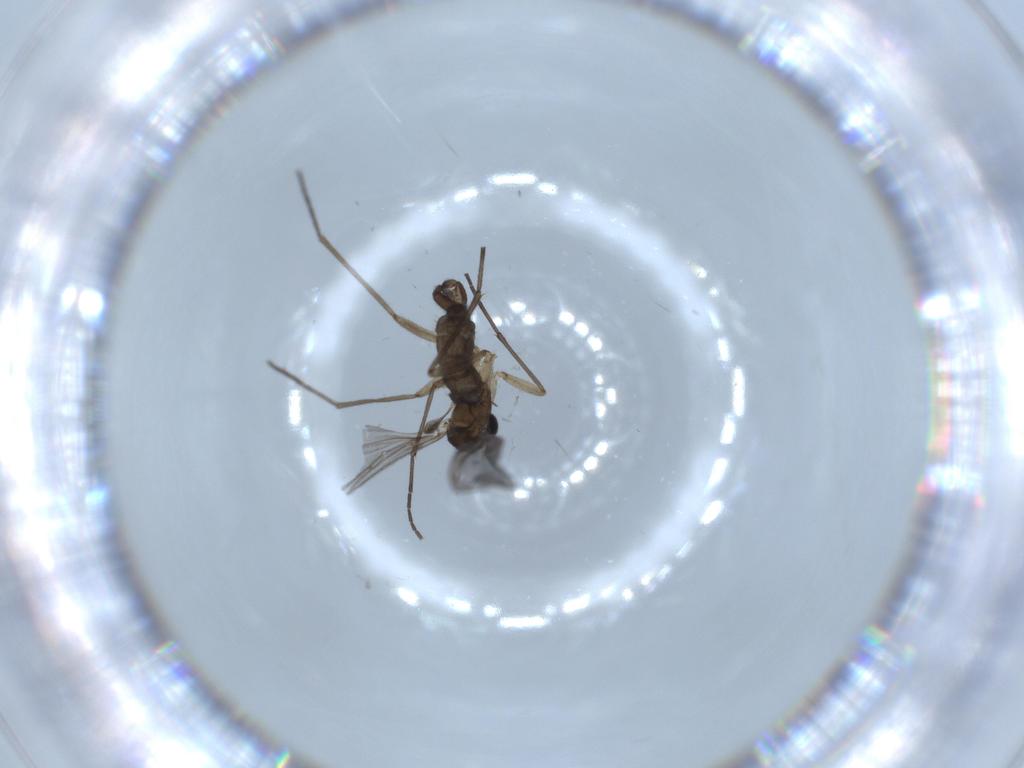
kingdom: Animalia
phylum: Arthropoda
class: Insecta
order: Diptera
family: Sciaridae
